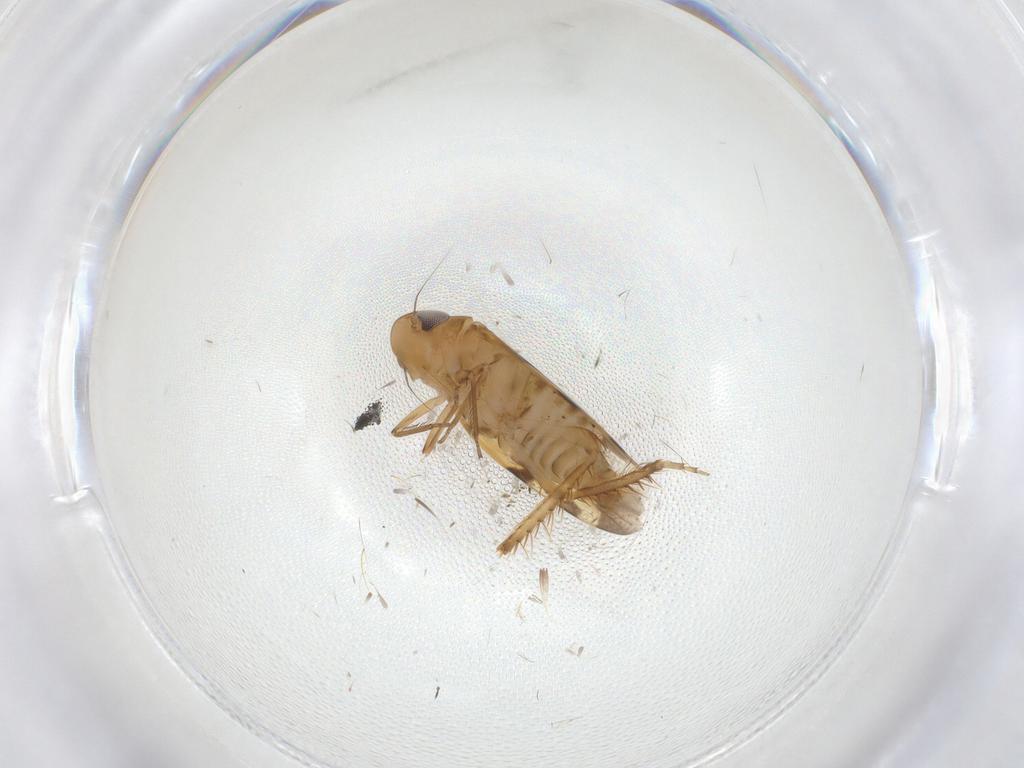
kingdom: Animalia
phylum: Arthropoda
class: Insecta
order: Hemiptera
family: Cicadellidae
